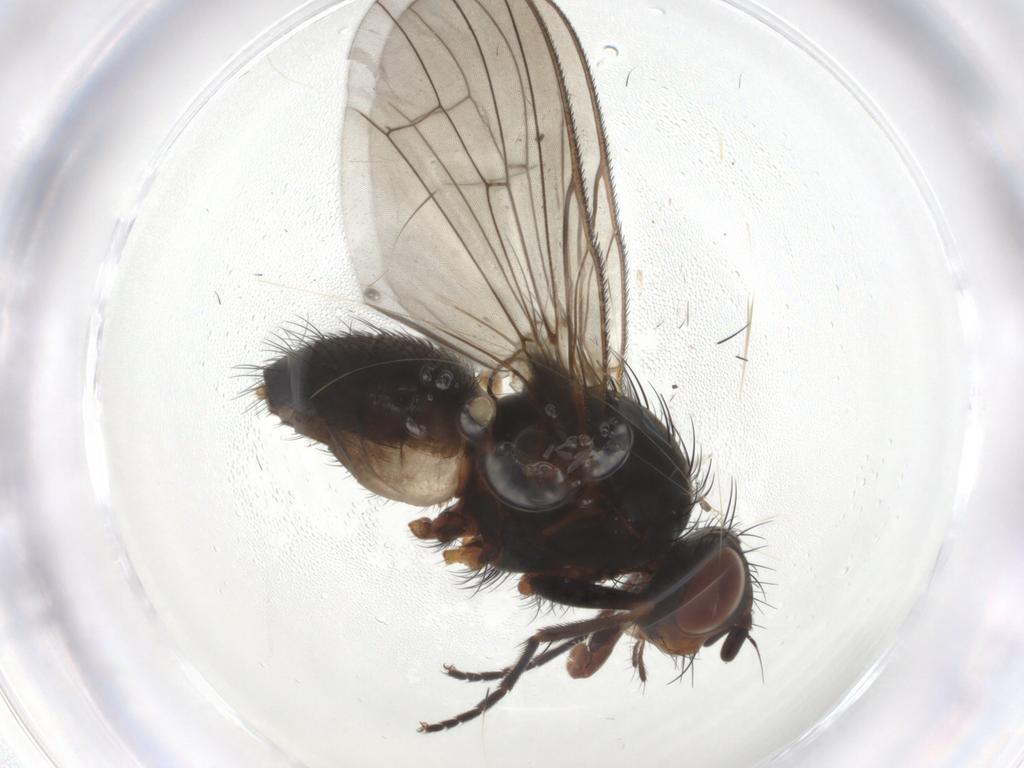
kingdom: Animalia
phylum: Arthropoda
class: Insecta
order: Diptera
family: Anthomyiidae
